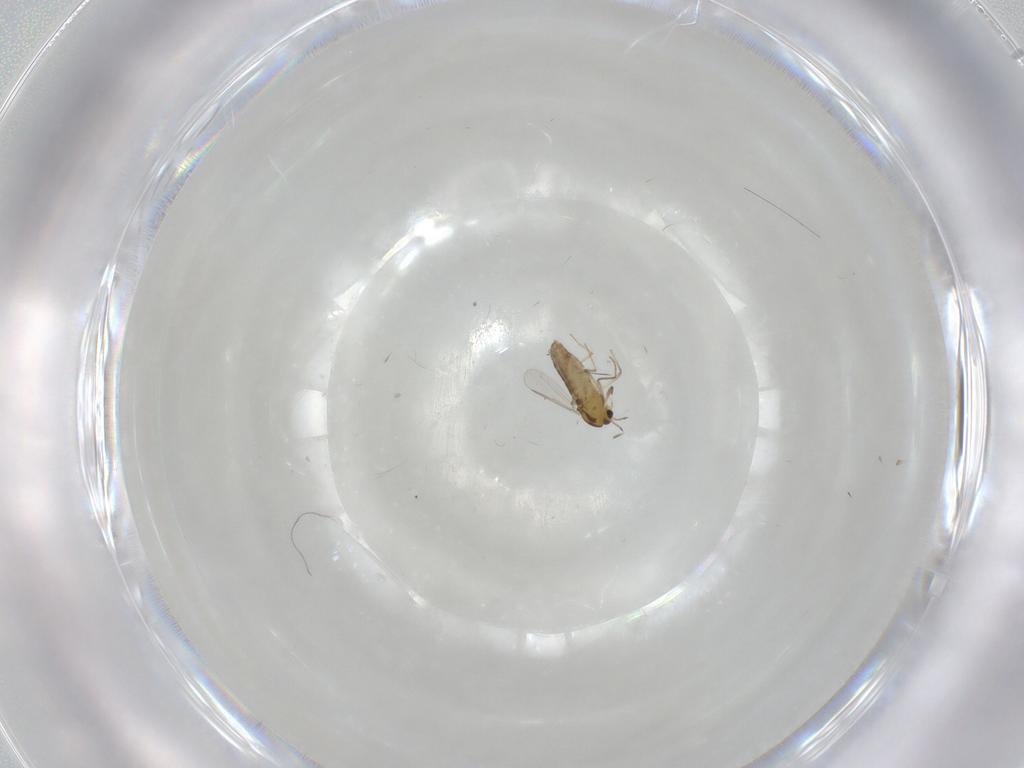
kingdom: Animalia
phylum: Arthropoda
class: Insecta
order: Diptera
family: Chironomidae
